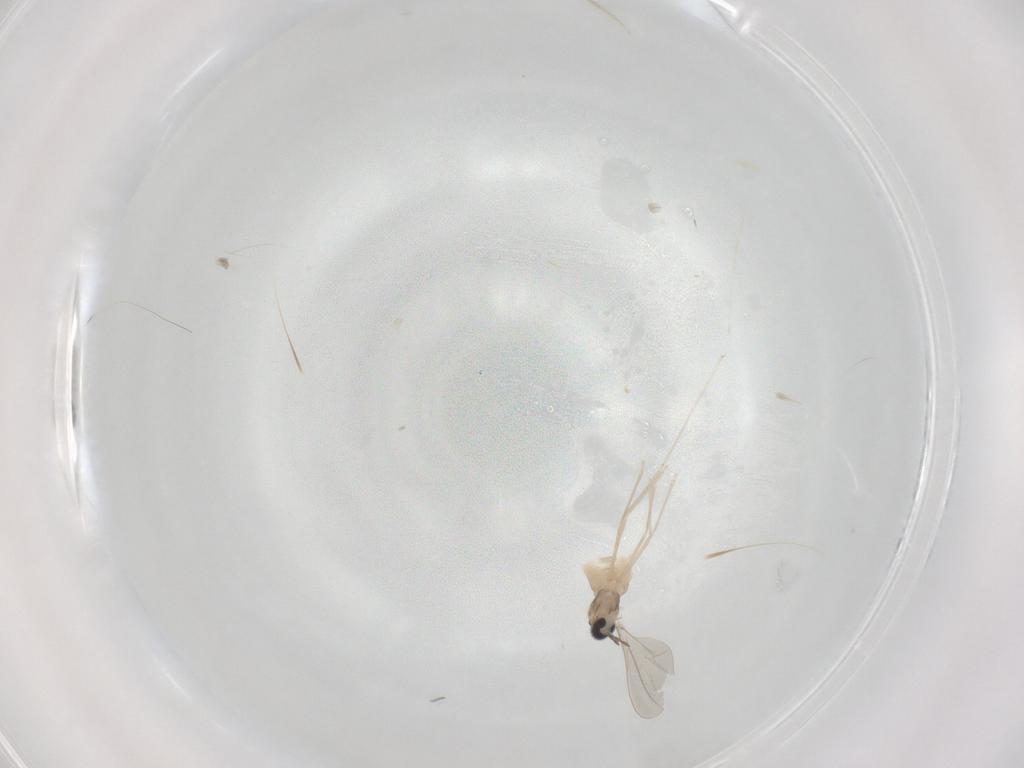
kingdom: Animalia
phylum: Arthropoda
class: Insecta
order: Diptera
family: Cecidomyiidae
